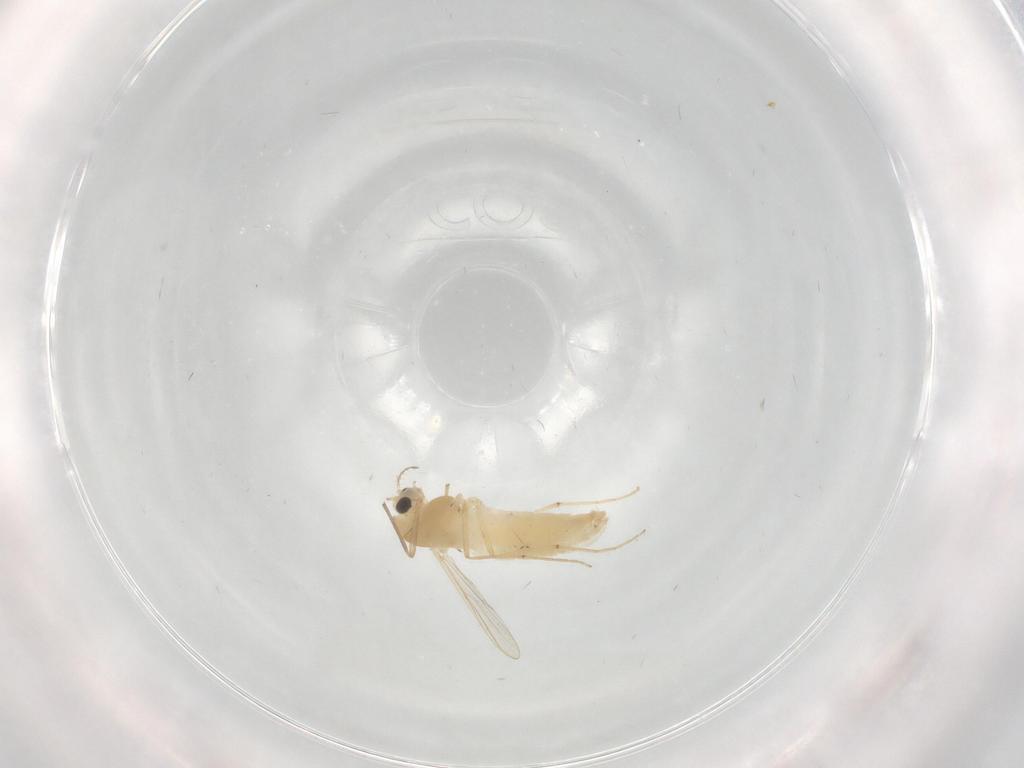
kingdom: Animalia
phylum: Arthropoda
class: Insecta
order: Diptera
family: Chironomidae
